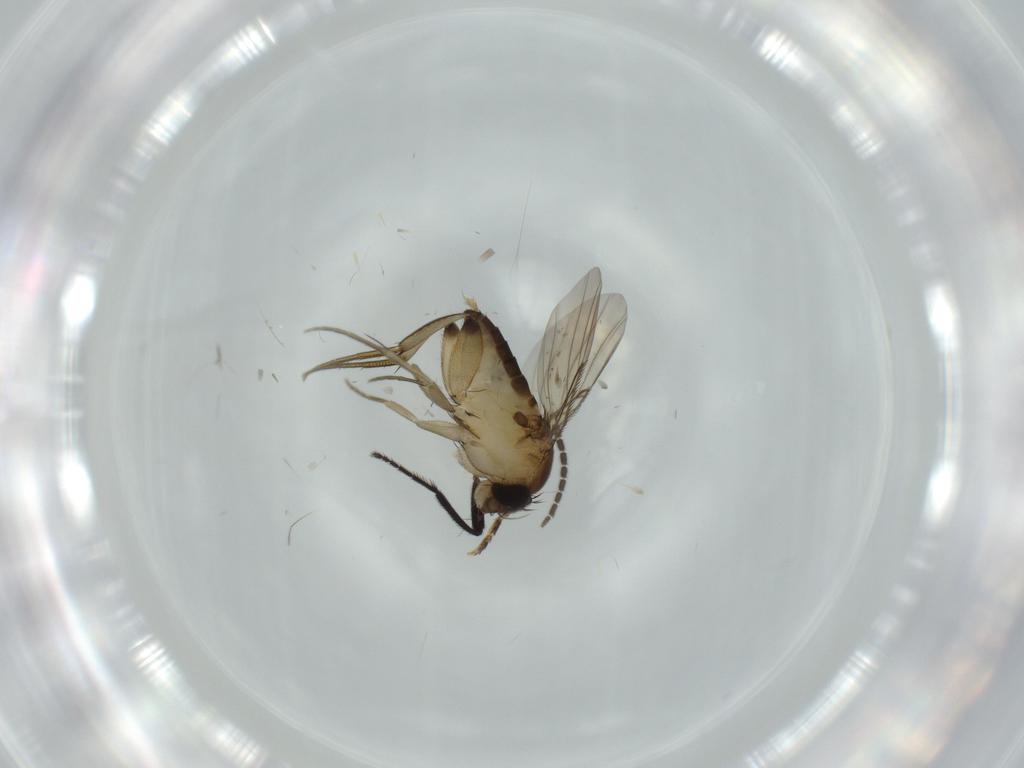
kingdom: Animalia
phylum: Arthropoda
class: Insecta
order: Diptera
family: Phoridae
